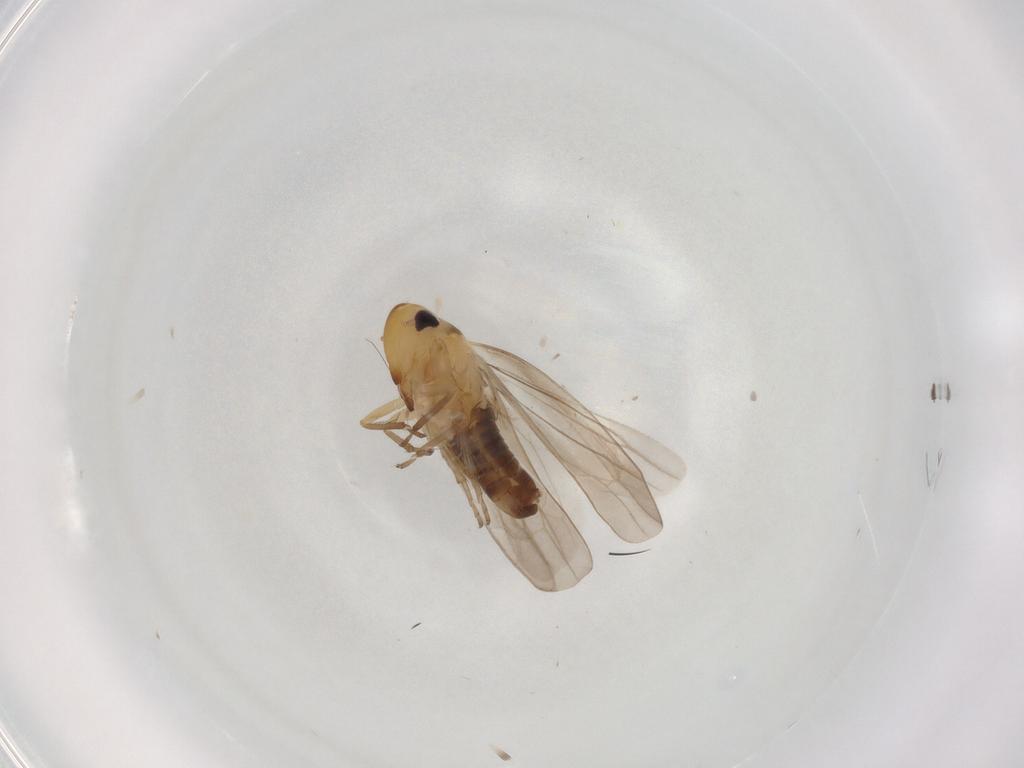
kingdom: Animalia
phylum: Arthropoda
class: Insecta
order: Hemiptera
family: Cicadellidae
